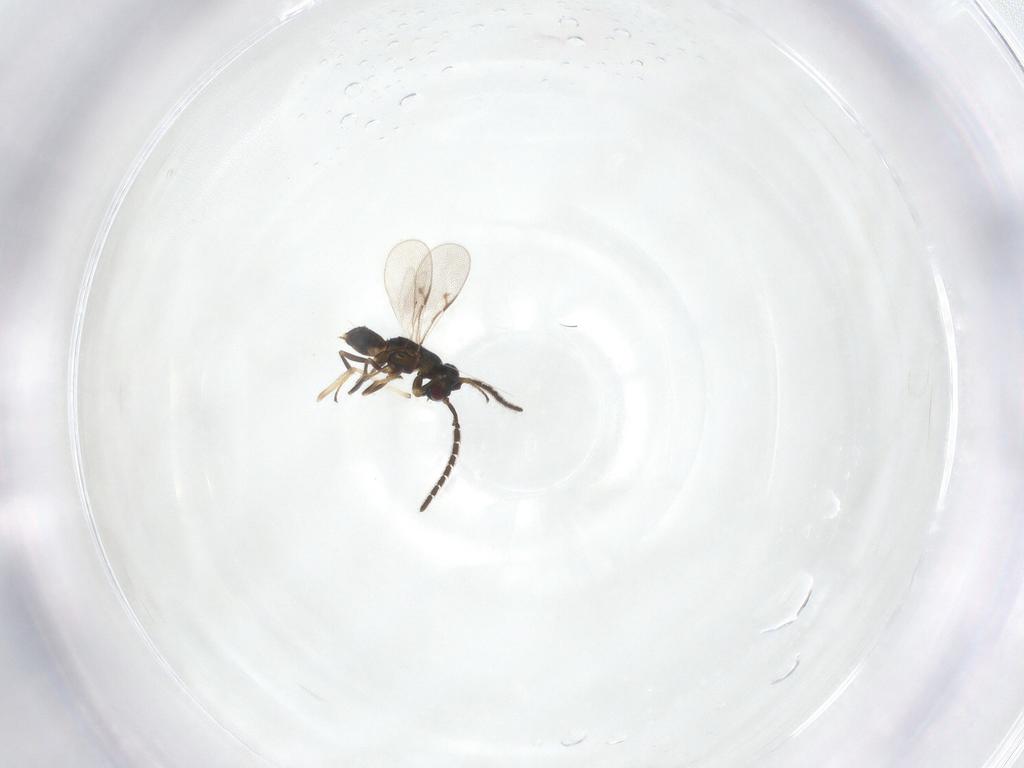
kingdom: Animalia
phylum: Arthropoda
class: Insecta
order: Hymenoptera
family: Encyrtidae
